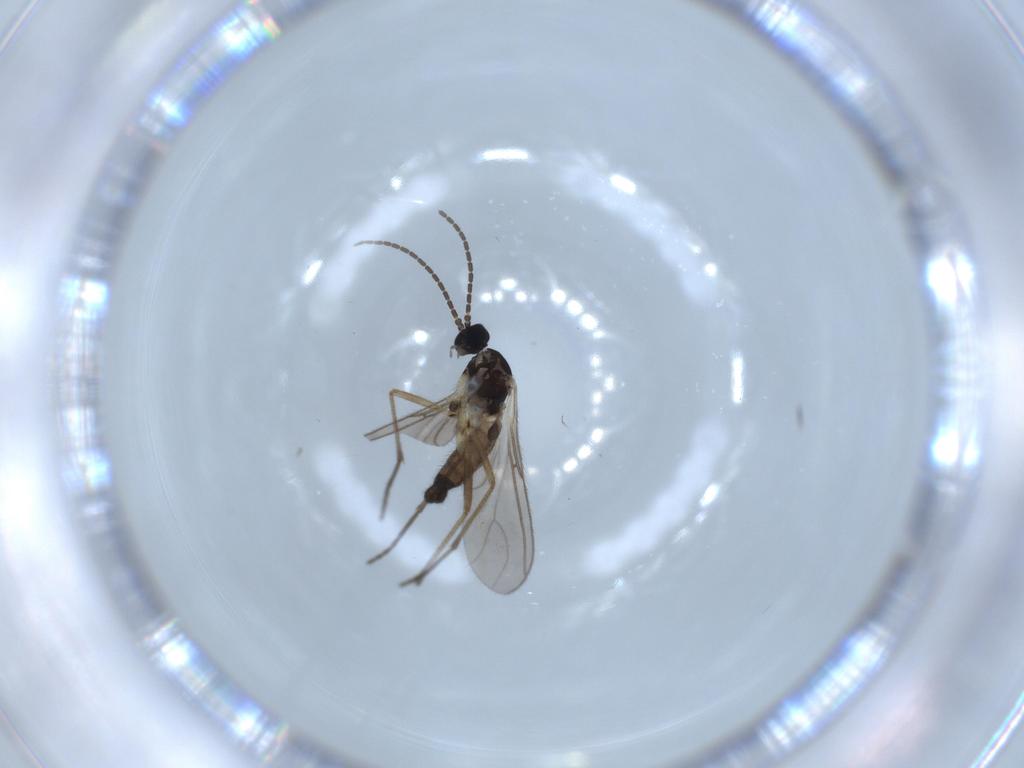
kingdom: Animalia
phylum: Arthropoda
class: Insecta
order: Diptera
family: Sciaridae
